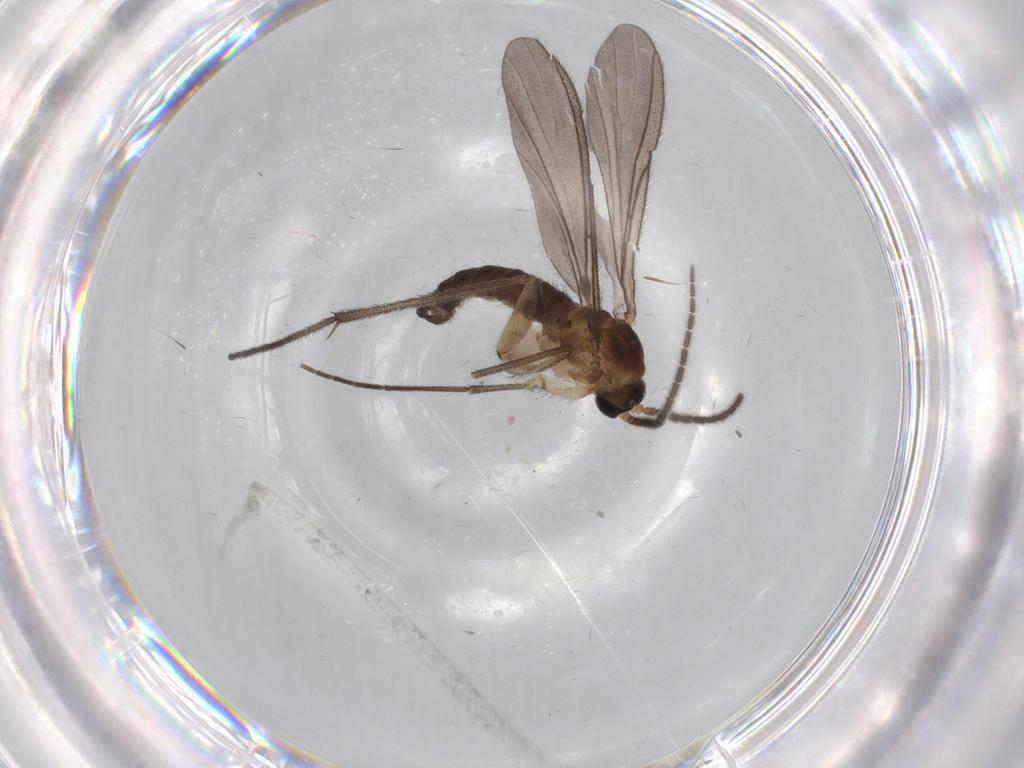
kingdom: Animalia
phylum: Arthropoda
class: Insecta
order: Diptera
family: Sciaridae
